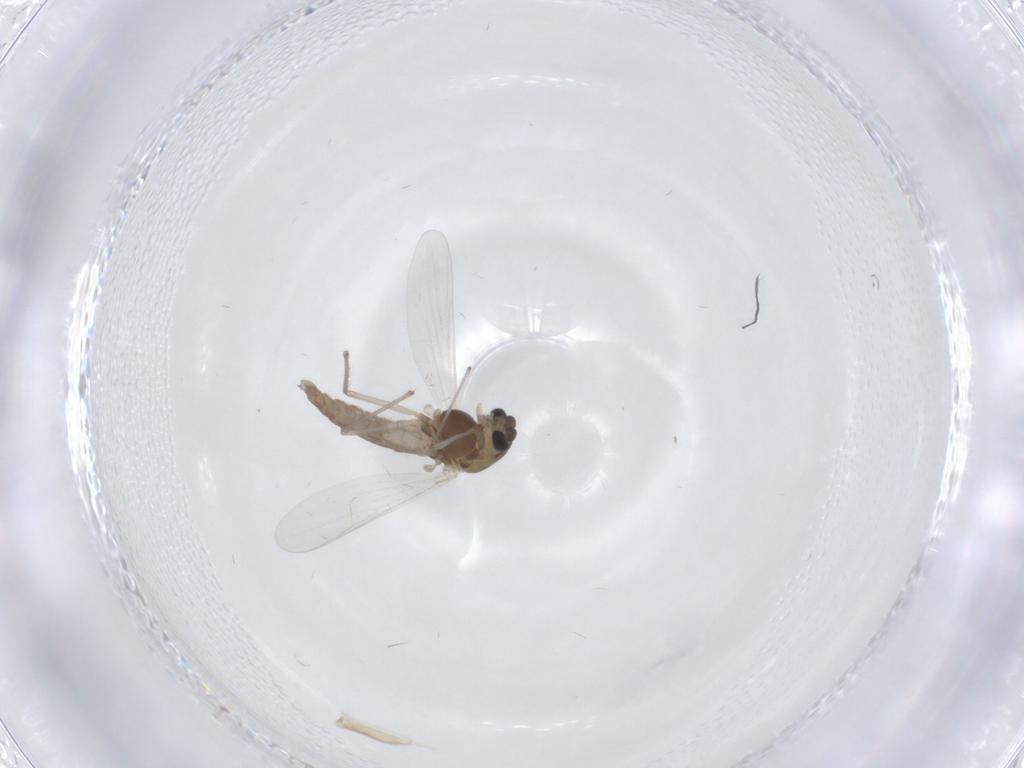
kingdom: Animalia
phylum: Arthropoda
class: Insecta
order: Diptera
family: Chironomidae
